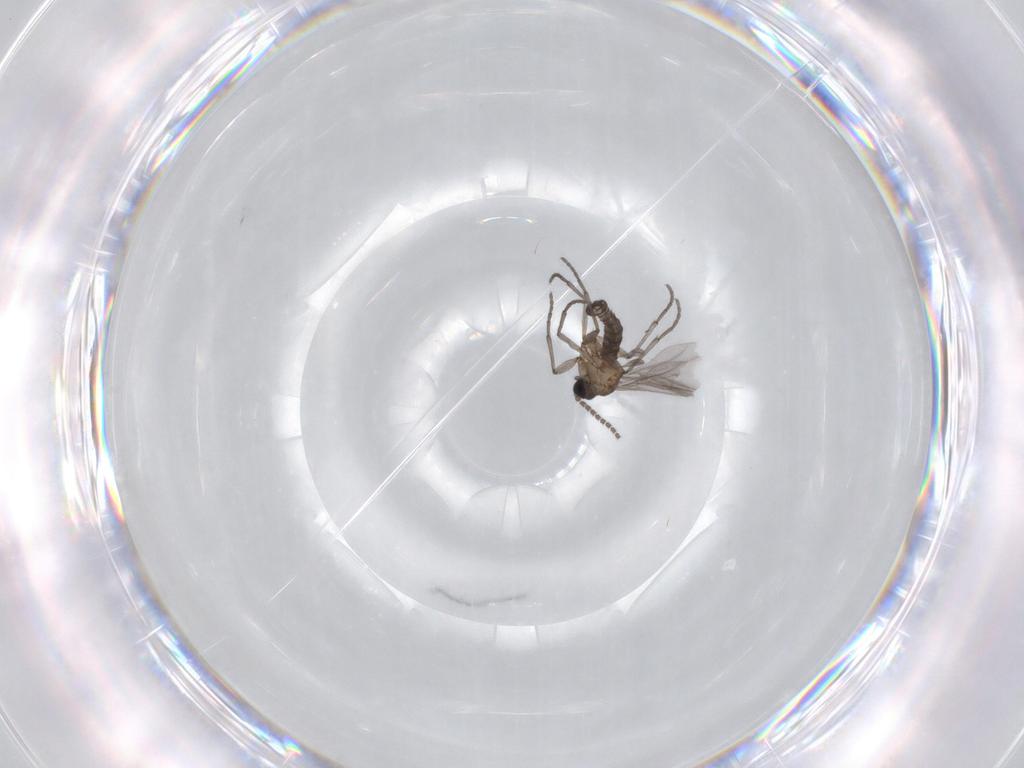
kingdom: Animalia
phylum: Arthropoda
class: Insecta
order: Diptera
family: Sciaridae
